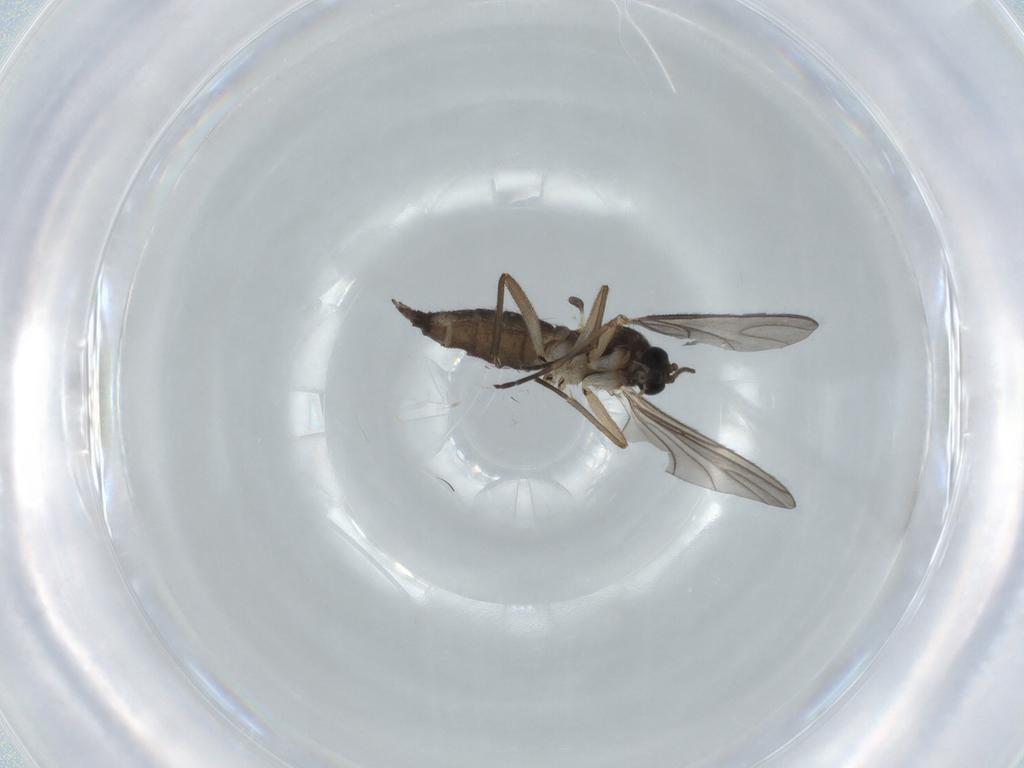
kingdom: Animalia
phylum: Arthropoda
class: Insecta
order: Diptera
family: Sciaridae
